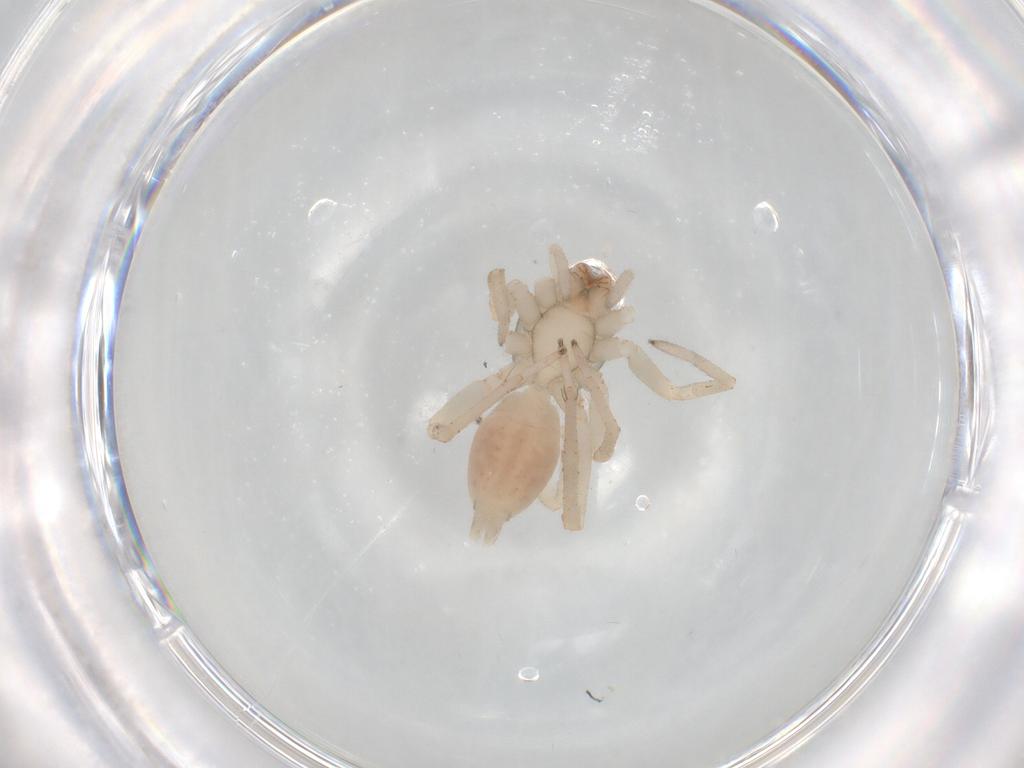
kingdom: Animalia
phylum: Arthropoda
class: Arachnida
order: Araneae
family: Clubionidae
